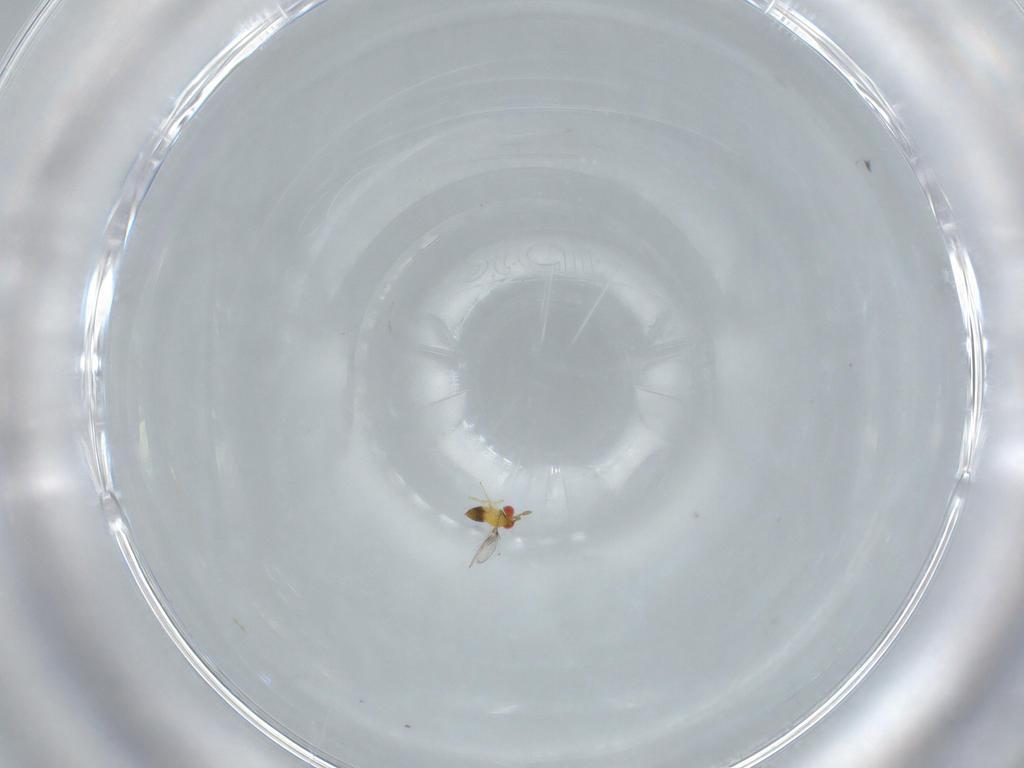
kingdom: Animalia
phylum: Arthropoda
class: Insecta
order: Hymenoptera
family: Trichogrammatidae
